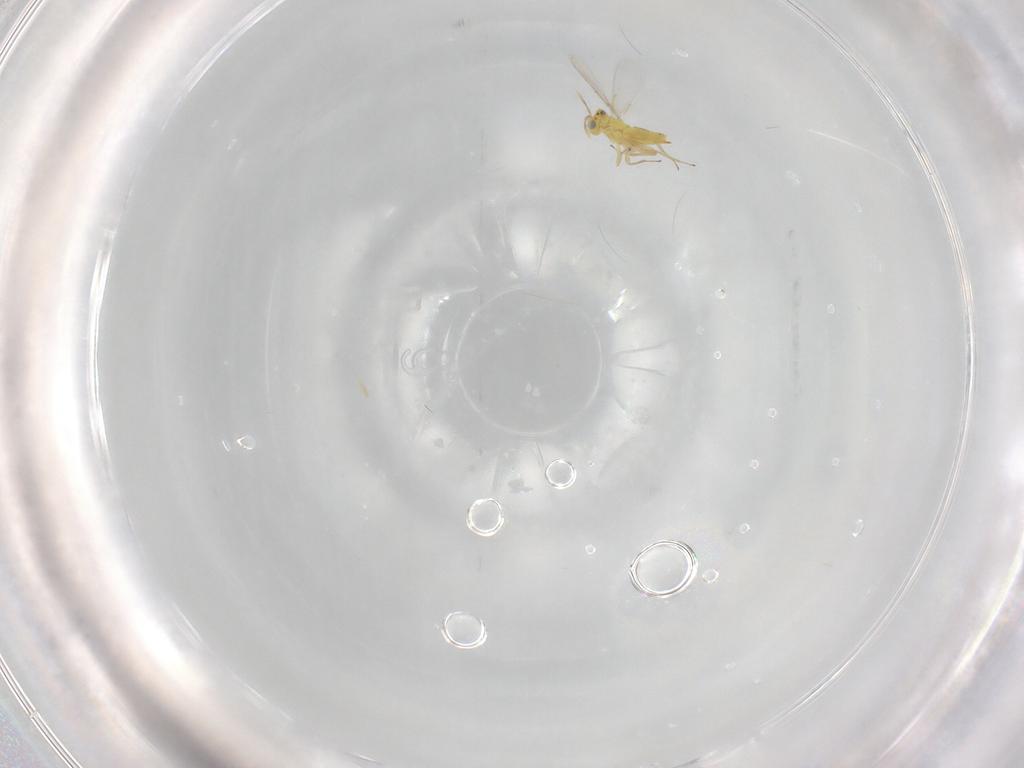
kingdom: Animalia
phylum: Arthropoda
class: Insecta
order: Hymenoptera
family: Aphelinidae
